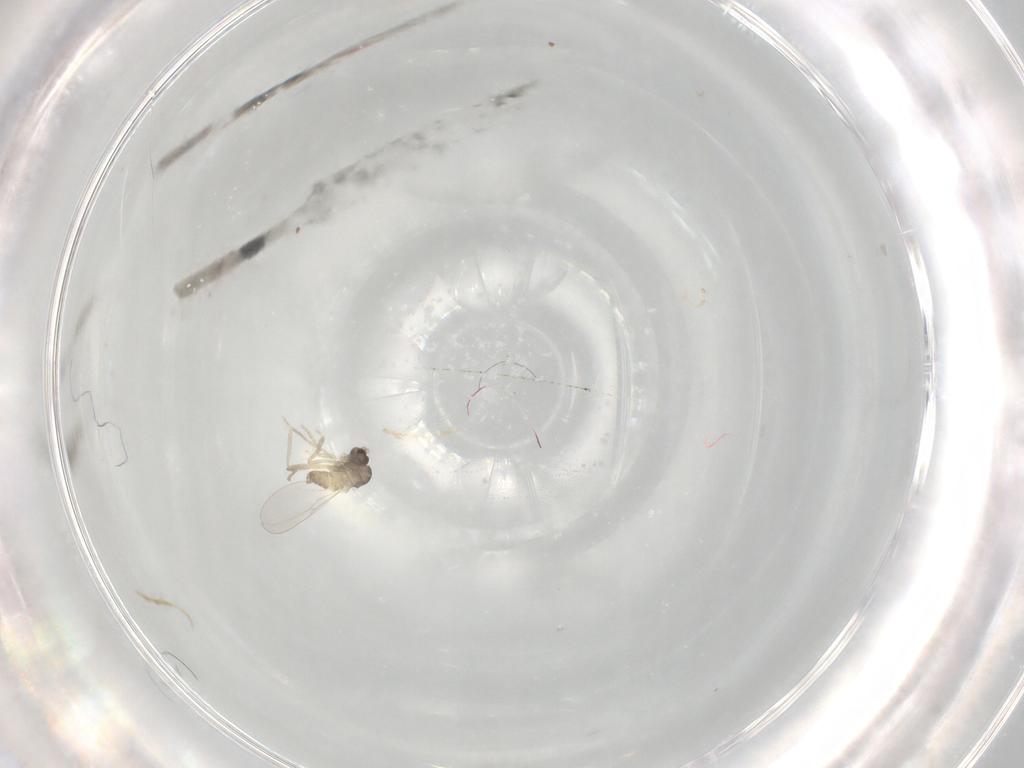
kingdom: Animalia
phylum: Arthropoda
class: Insecta
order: Diptera
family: Cecidomyiidae
